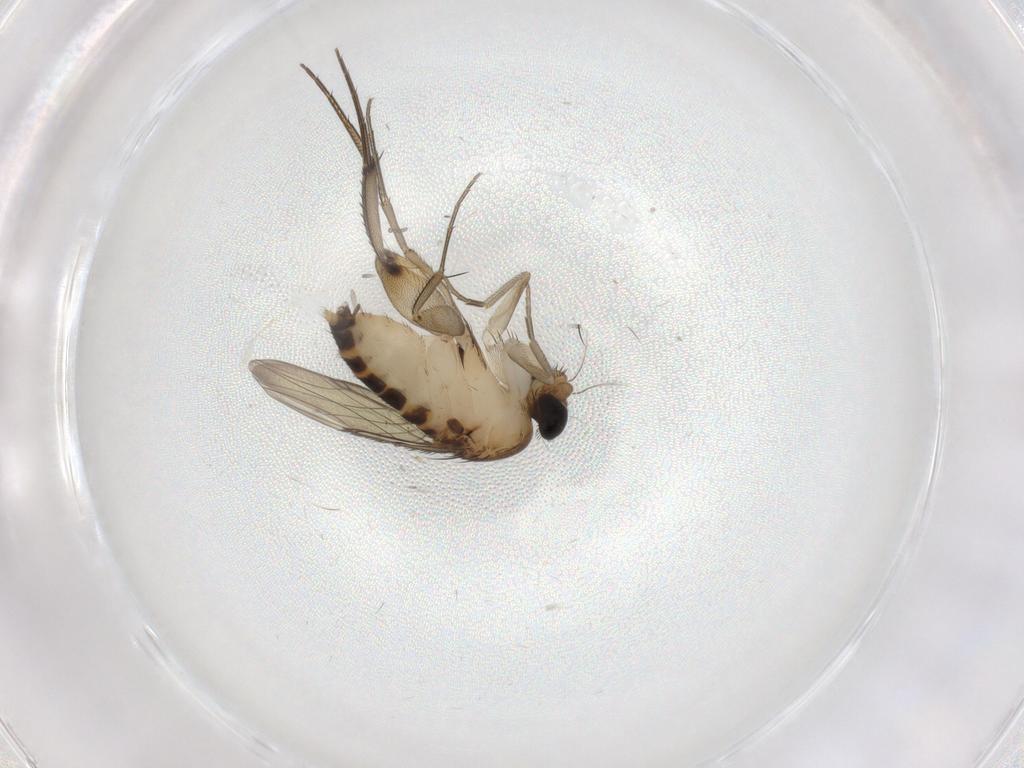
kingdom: Animalia
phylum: Arthropoda
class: Insecta
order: Diptera
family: Phoridae
